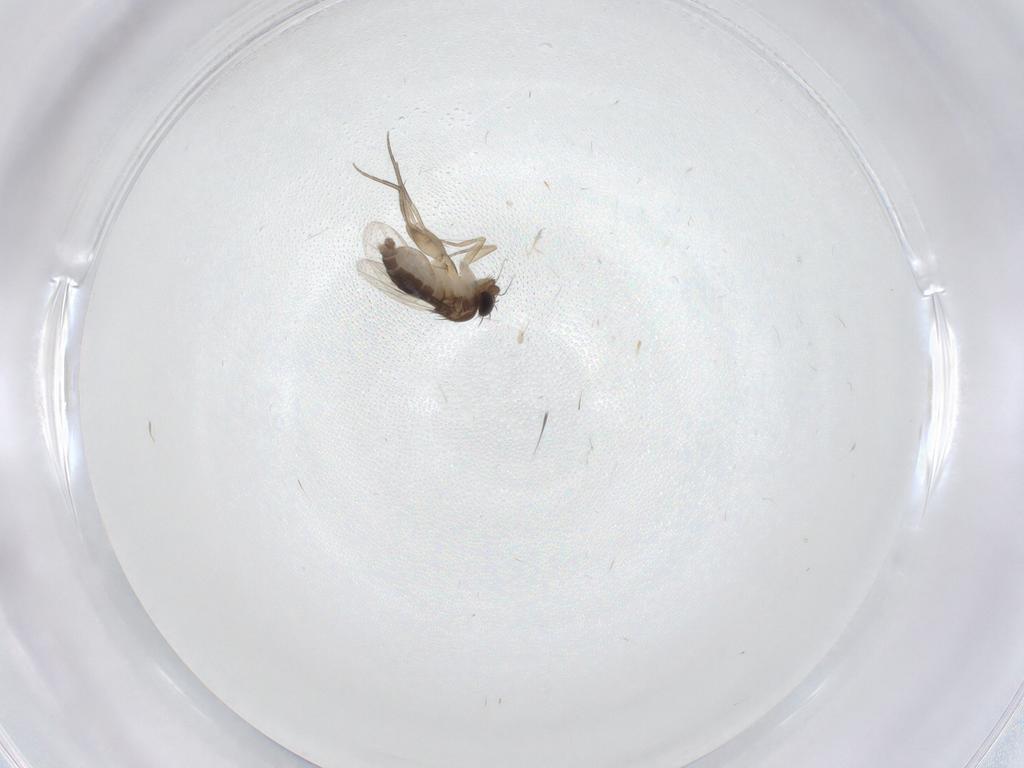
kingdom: Animalia
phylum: Arthropoda
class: Insecta
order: Diptera
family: Phoridae
